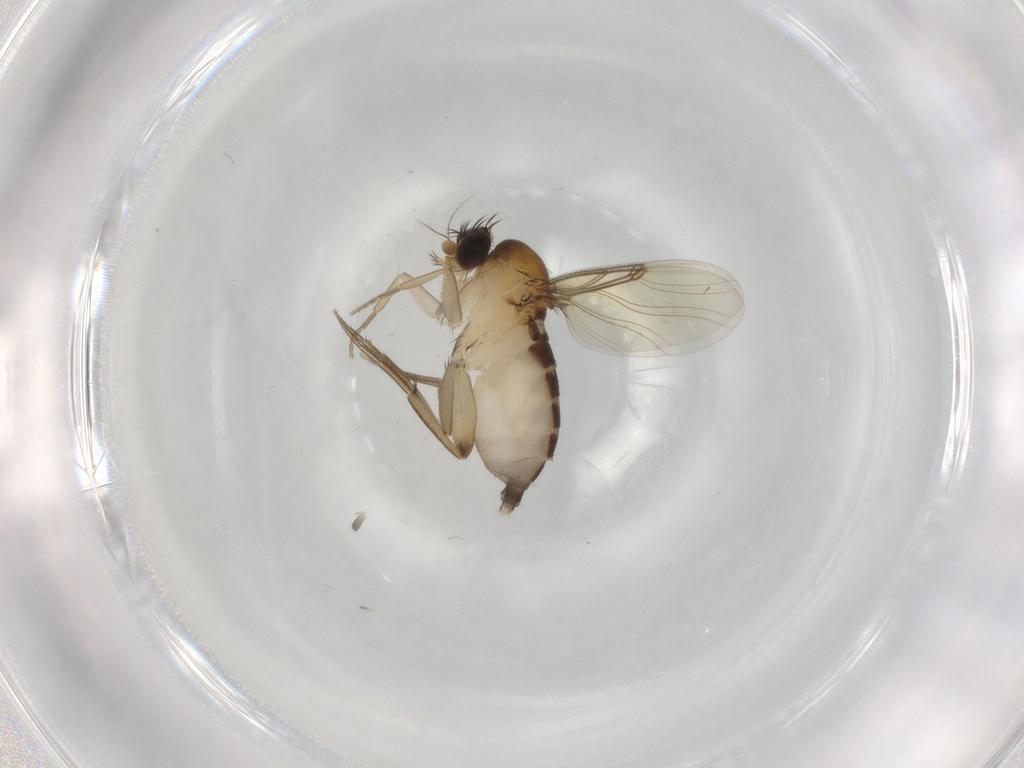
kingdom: Animalia
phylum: Arthropoda
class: Insecta
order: Diptera
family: Phoridae
